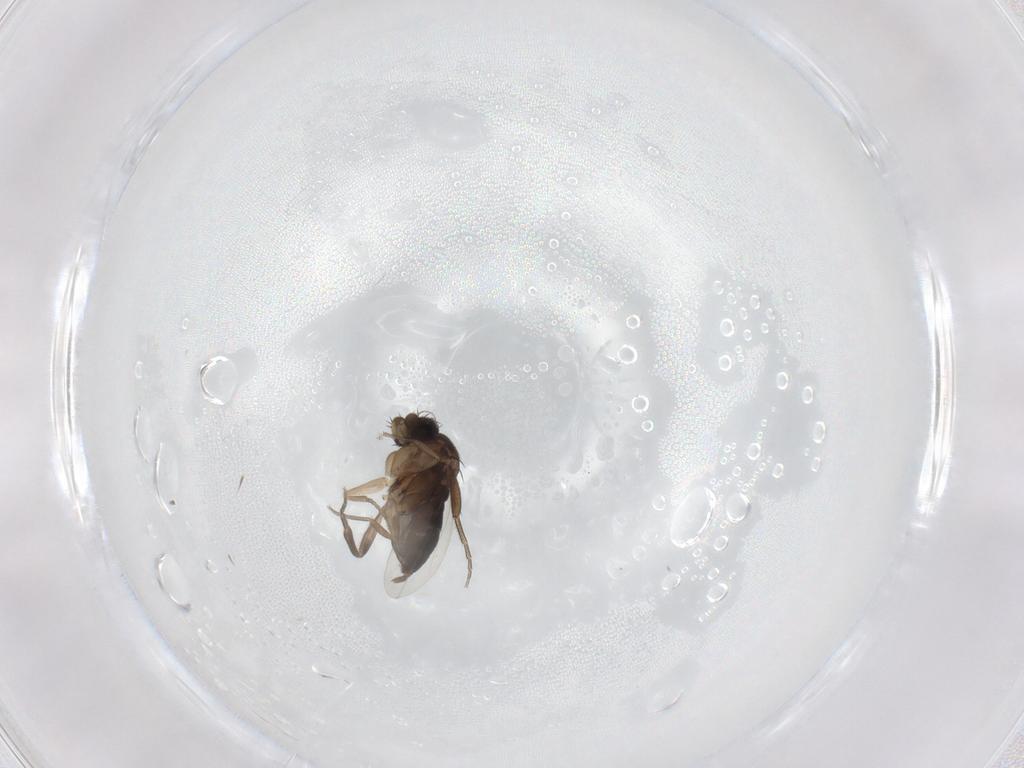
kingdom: Animalia
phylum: Arthropoda
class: Insecta
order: Diptera
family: Phoridae
